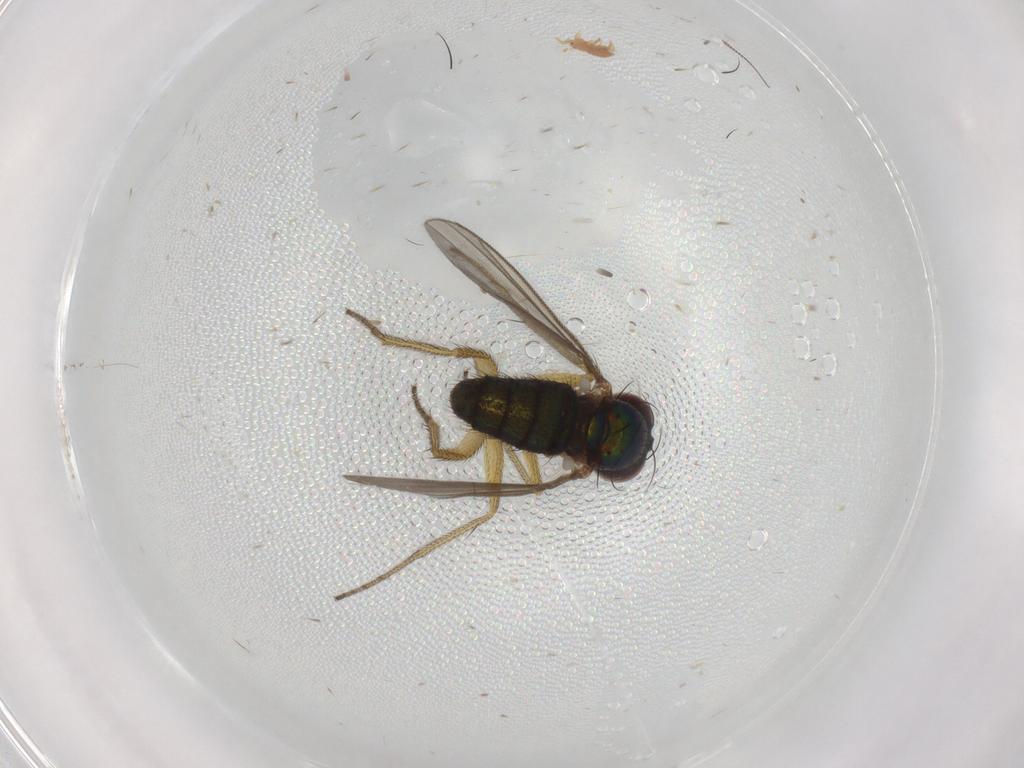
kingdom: Animalia
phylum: Arthropoda
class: Insecta
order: Diptera
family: Dolichopodidae
